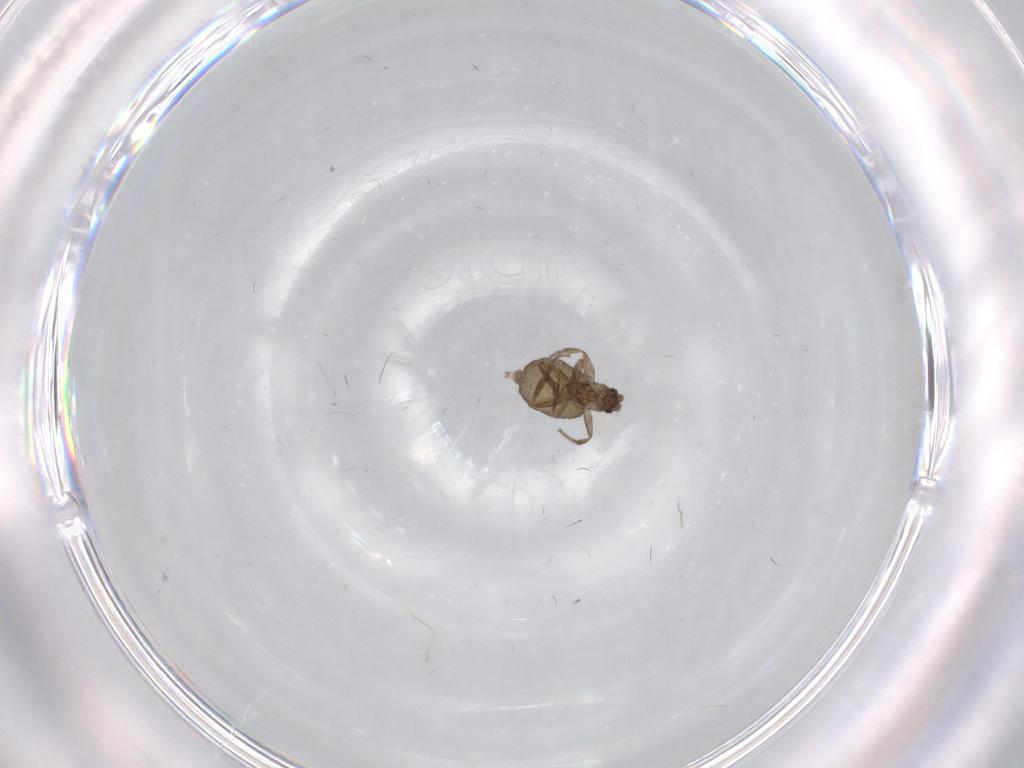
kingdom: Animalia
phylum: Arthropoda
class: Insecta
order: Diptera
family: Phoridae
